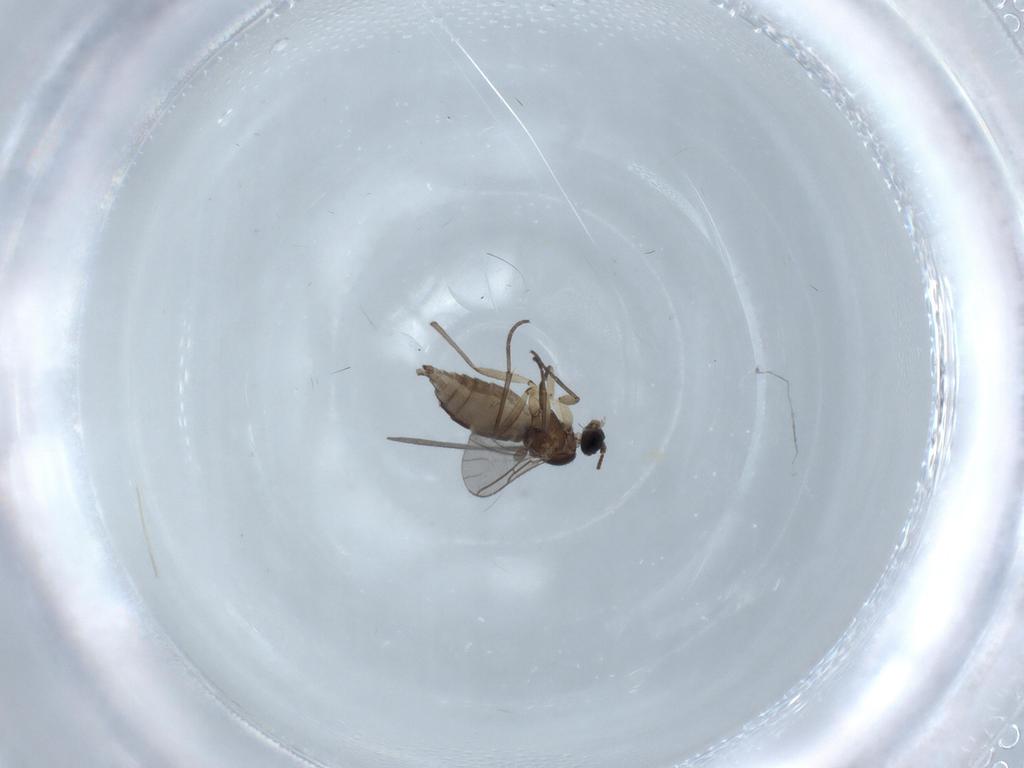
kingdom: Animalia
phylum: Arthropoda
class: Insecta
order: Diptera
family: Sciaridae
